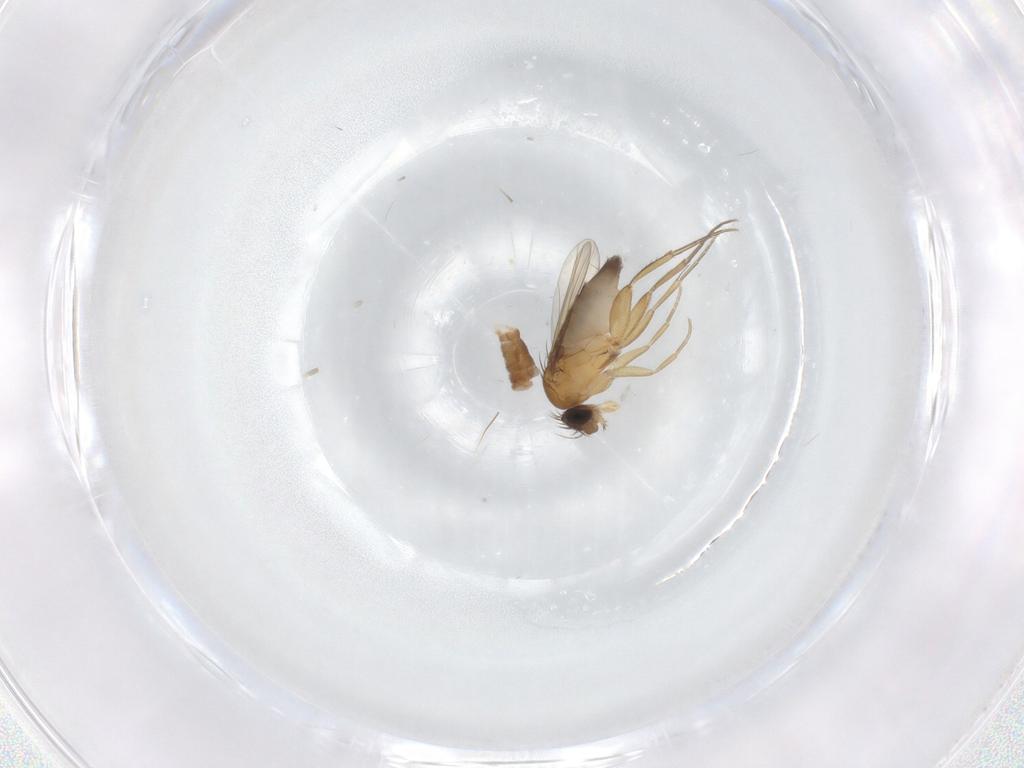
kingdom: Animalia
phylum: Arthropoda
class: Insecta
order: Diptera
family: Phoridae
